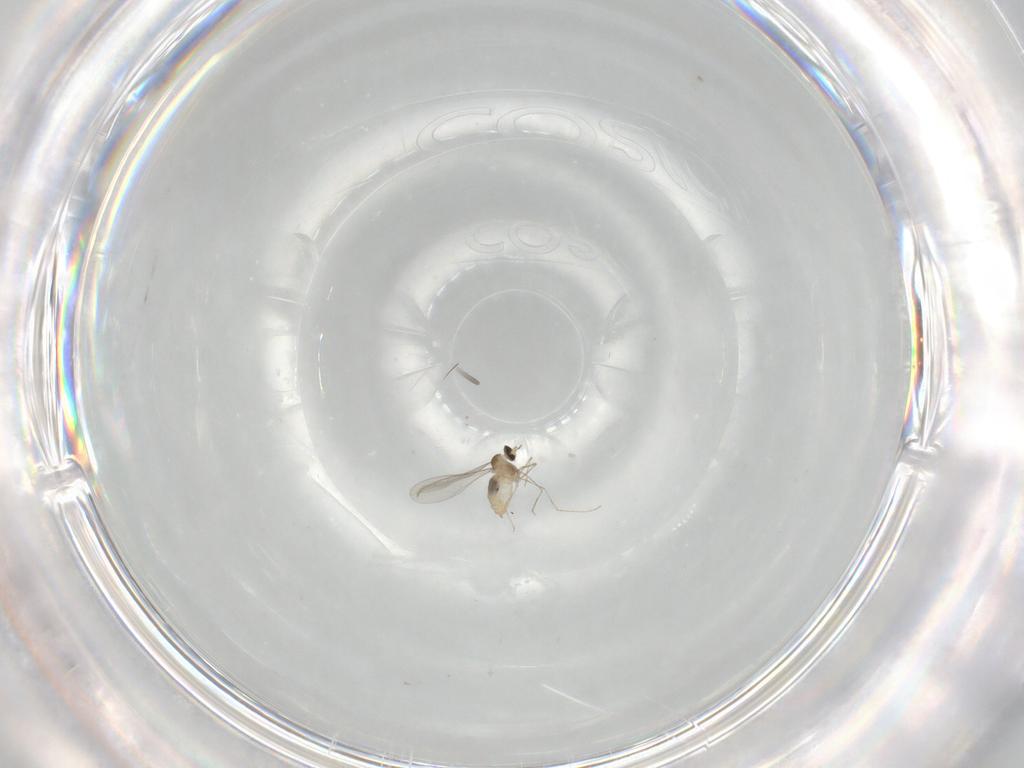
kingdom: Animalia
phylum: Arthropoda
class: Insecta
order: Diptera
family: Cecidomyiidae
